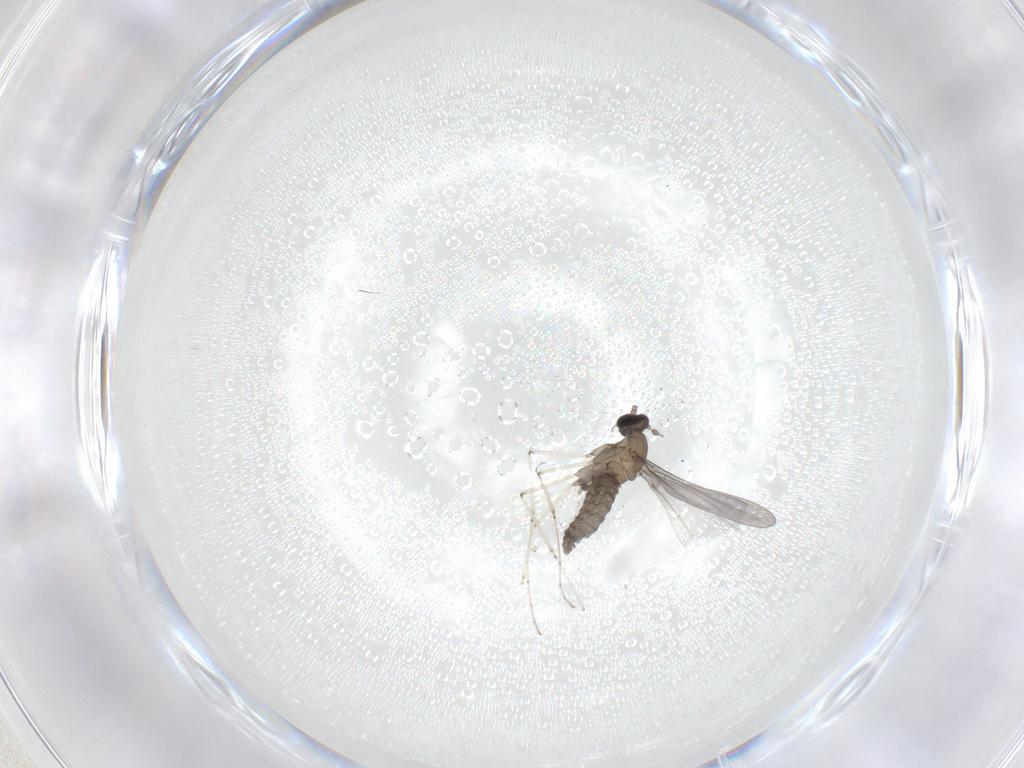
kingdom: Animalia
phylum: Arthropoda
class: Insecta
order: Diptera
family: Cecidomyiidae
